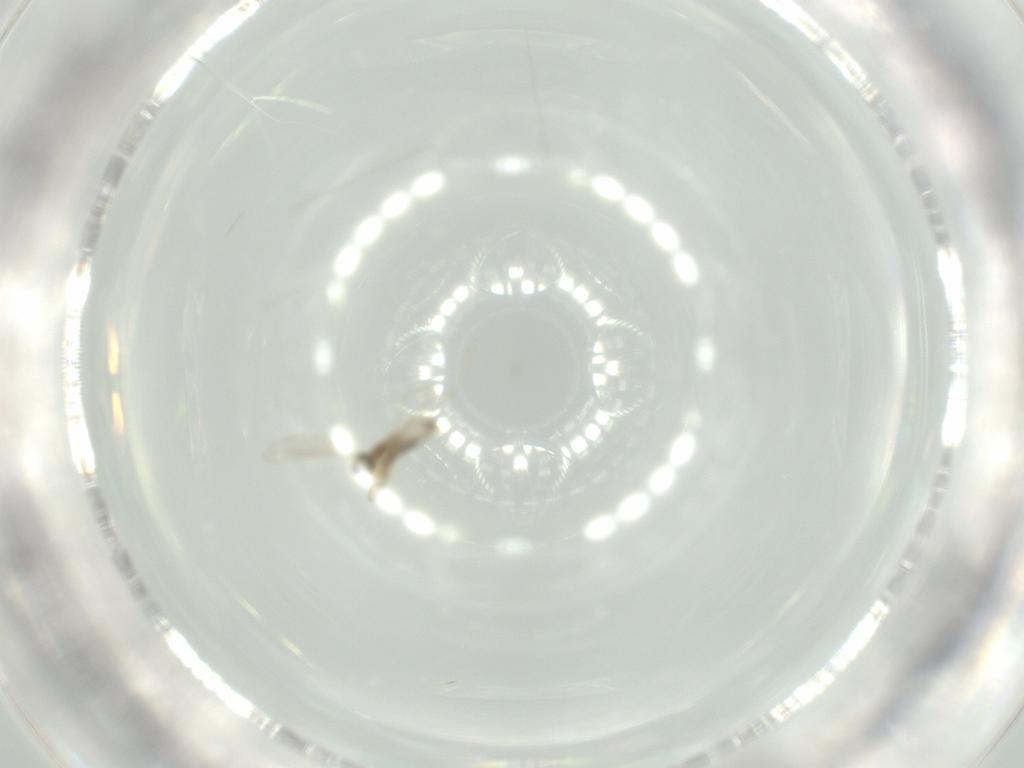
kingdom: Animalia
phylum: Arthropoda
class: Insecta
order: Diptera
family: Cecidomyiidae
